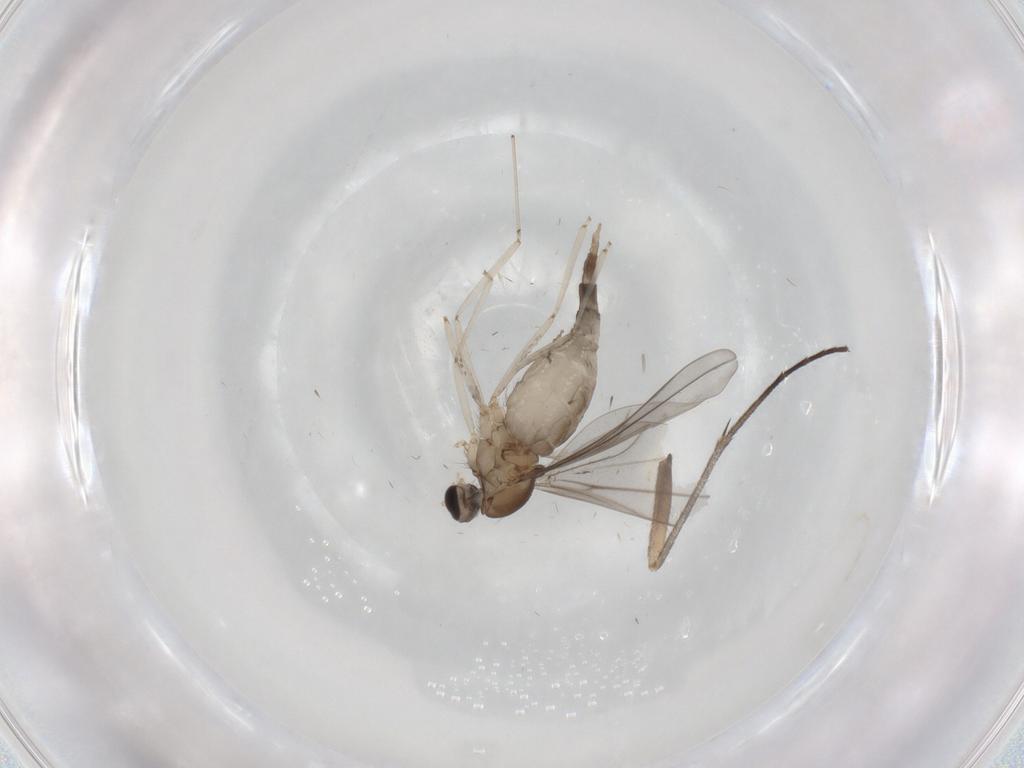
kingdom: Animalia
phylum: Arthropoda
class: Insecta
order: Diptera
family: Cecidomyiidae
